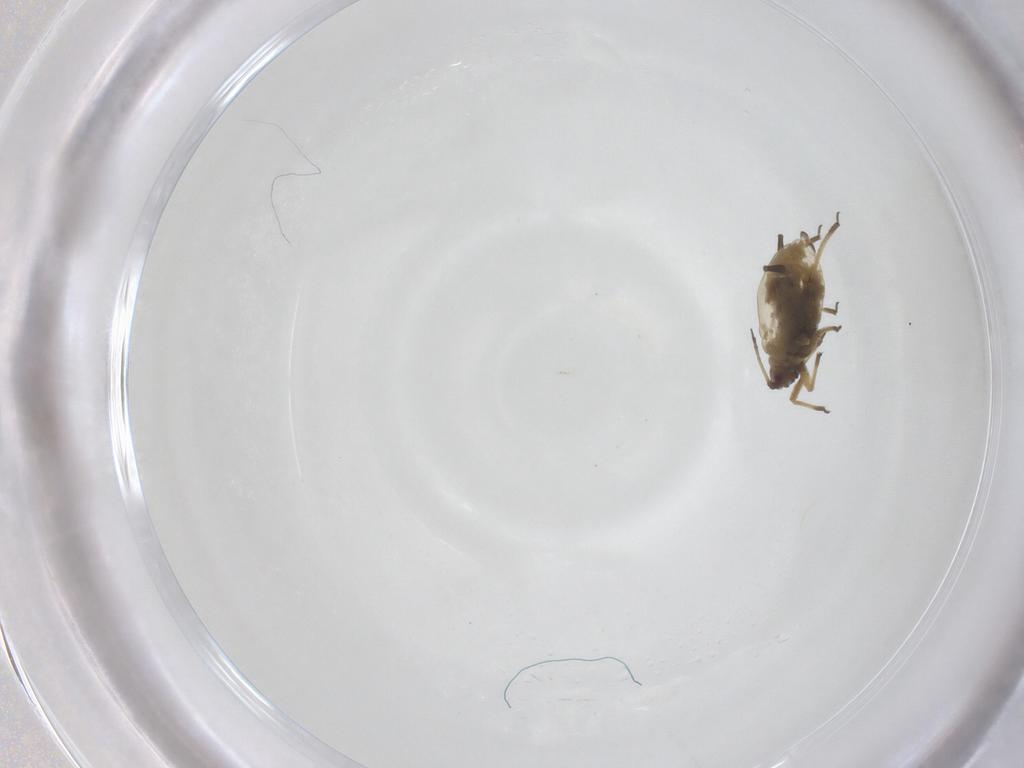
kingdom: Animalia
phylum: Arthropoda
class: Insecta
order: Hemiptera
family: Aphididae
